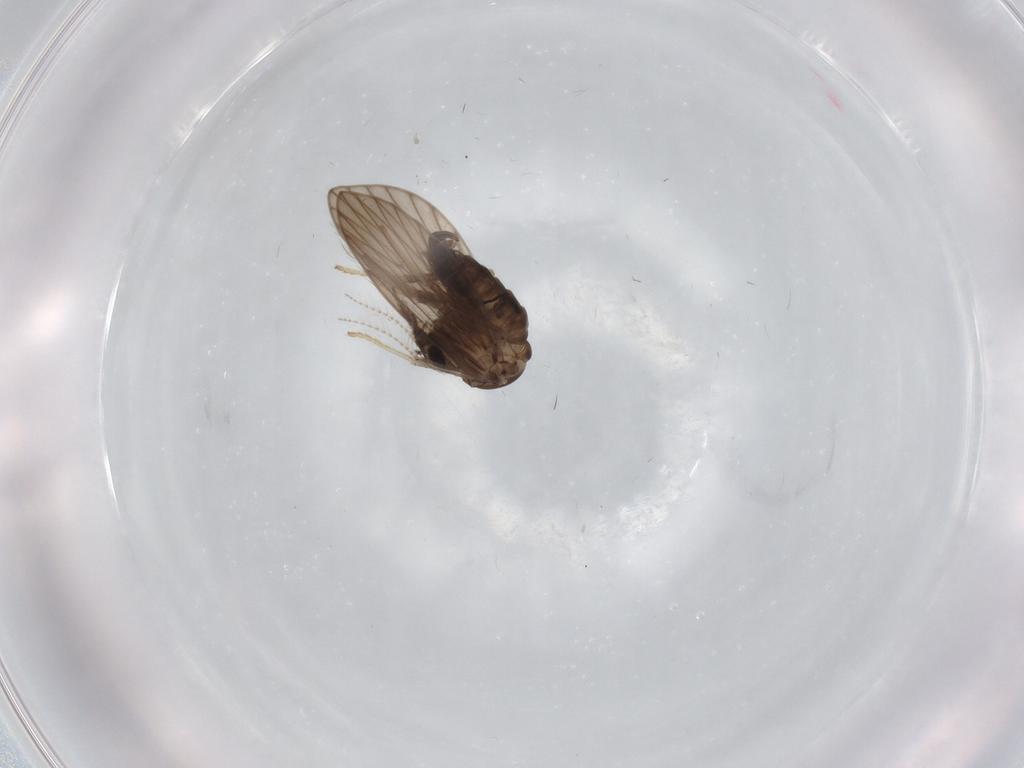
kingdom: Animalia
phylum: Arthropoda
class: Insecta
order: Diptera
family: Psychodidae
